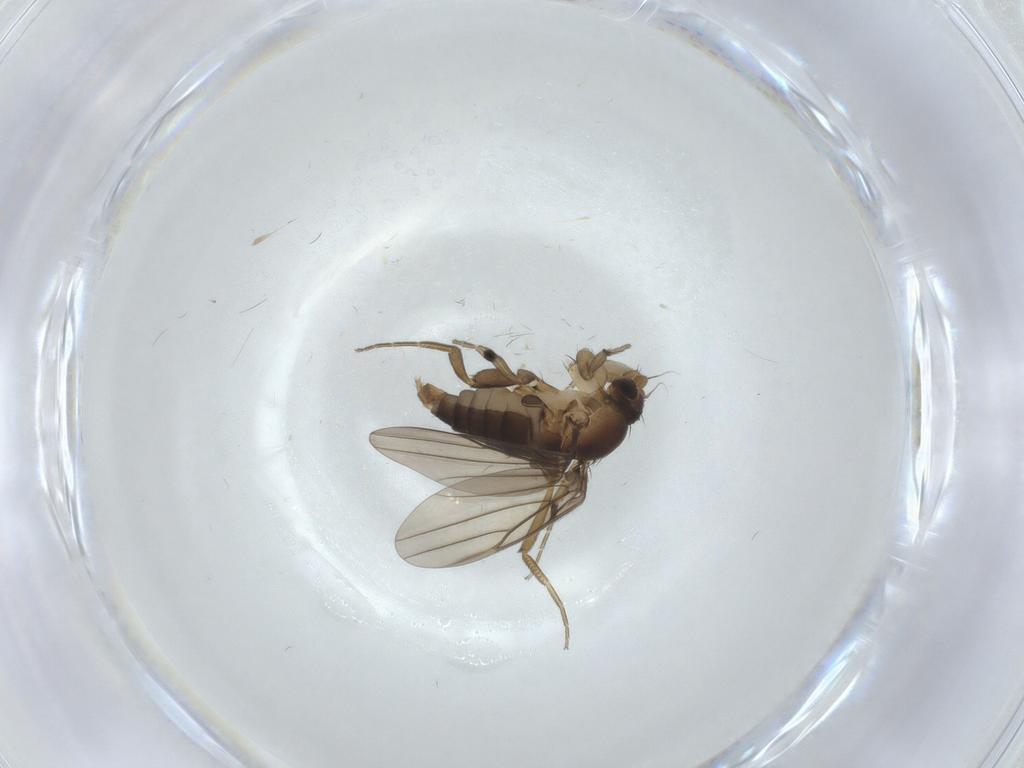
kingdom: Animalia
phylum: Arthropoda
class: Insecta
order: Diptera
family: Phoridae
